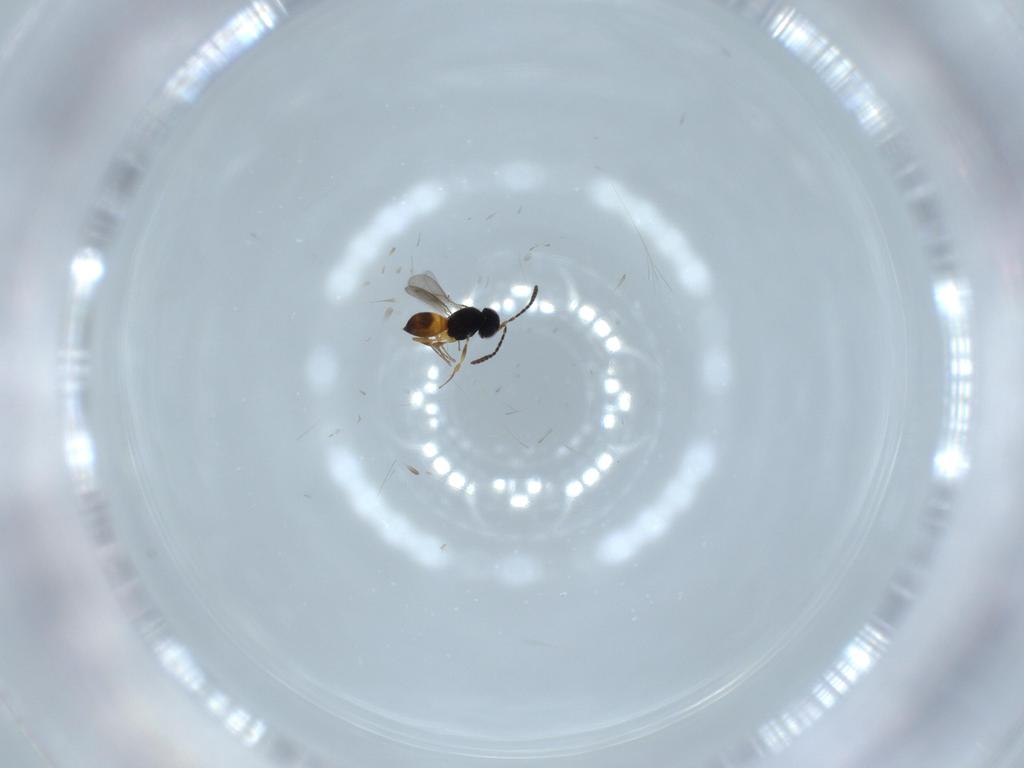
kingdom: Animalia
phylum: Arthropoda
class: Insecta
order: Hymenoptera
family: Scelionidae
